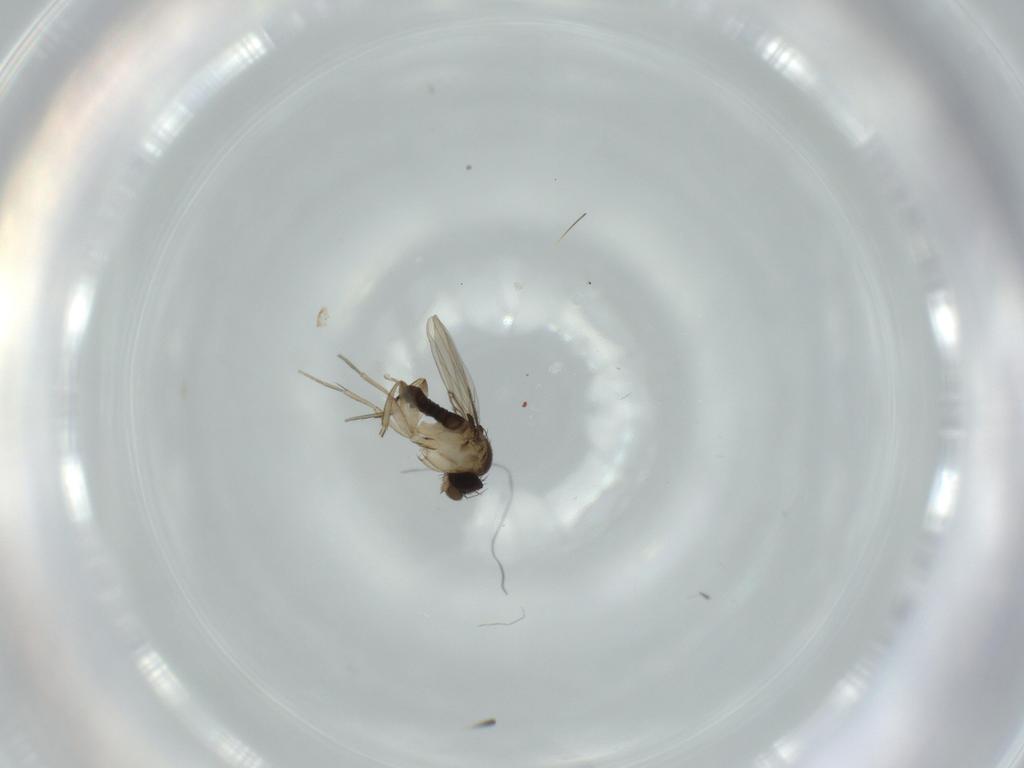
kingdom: Animalia
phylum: Arthropoda
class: Insecta
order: Diptera
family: Phoridae
